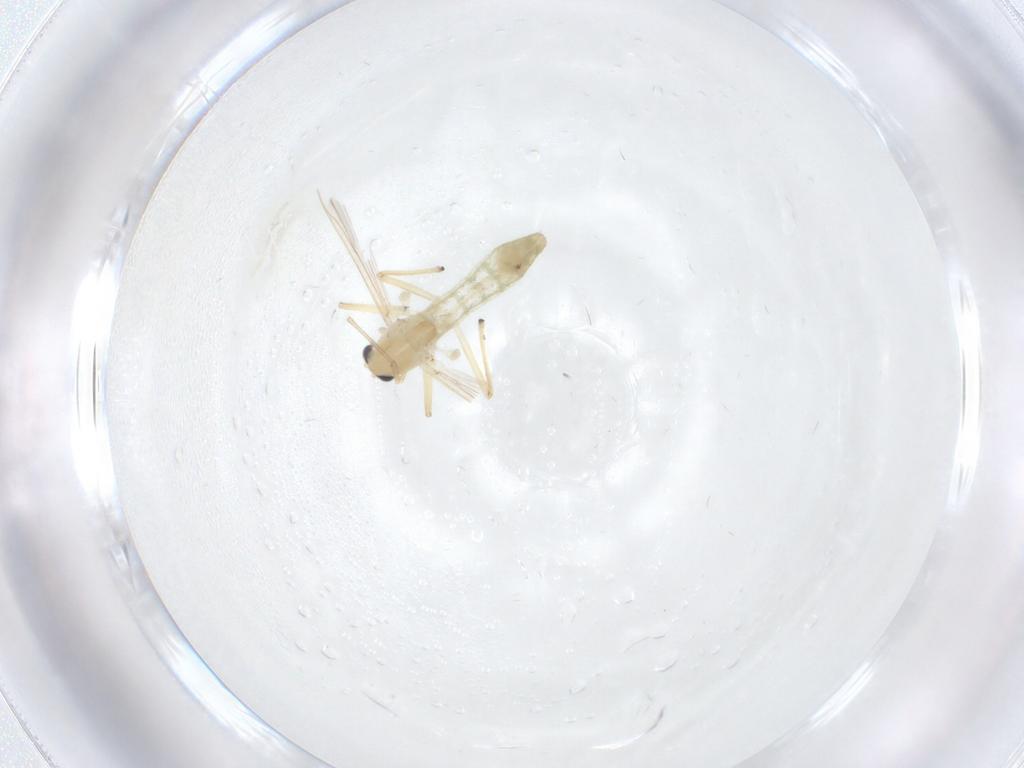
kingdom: Animalia
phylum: Arthropoda
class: Insecta
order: Diptera
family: Chironomidae
